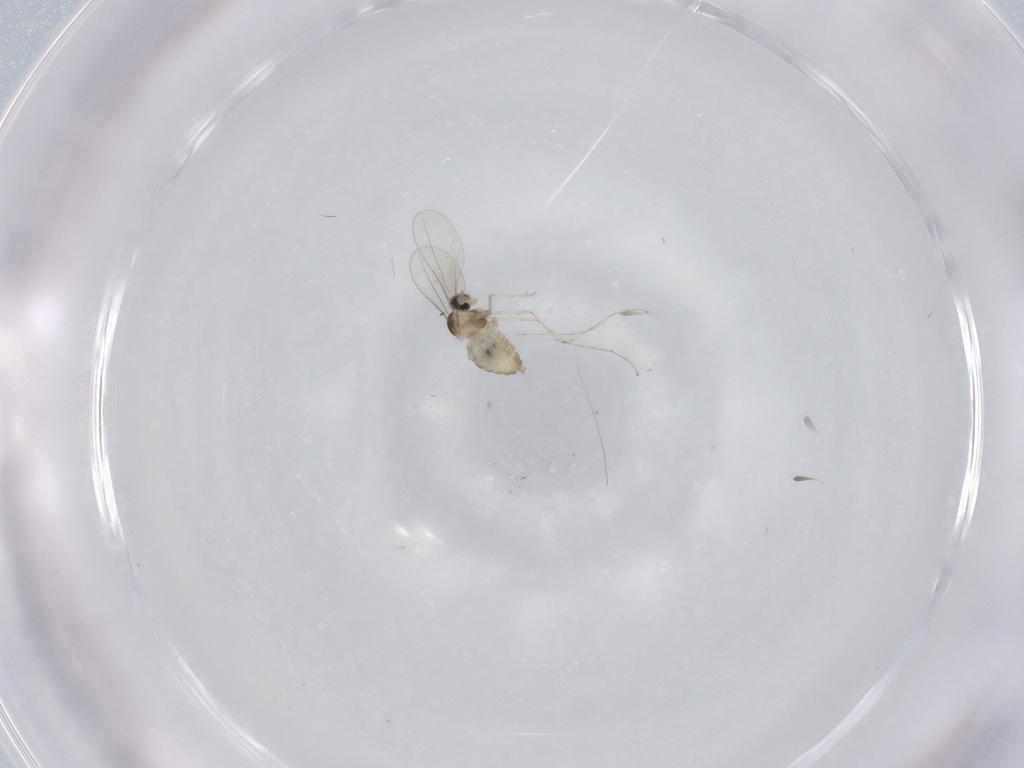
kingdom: Animalia
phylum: Arthropoda
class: Insecta
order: Diptera
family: Cecidomyiidae
